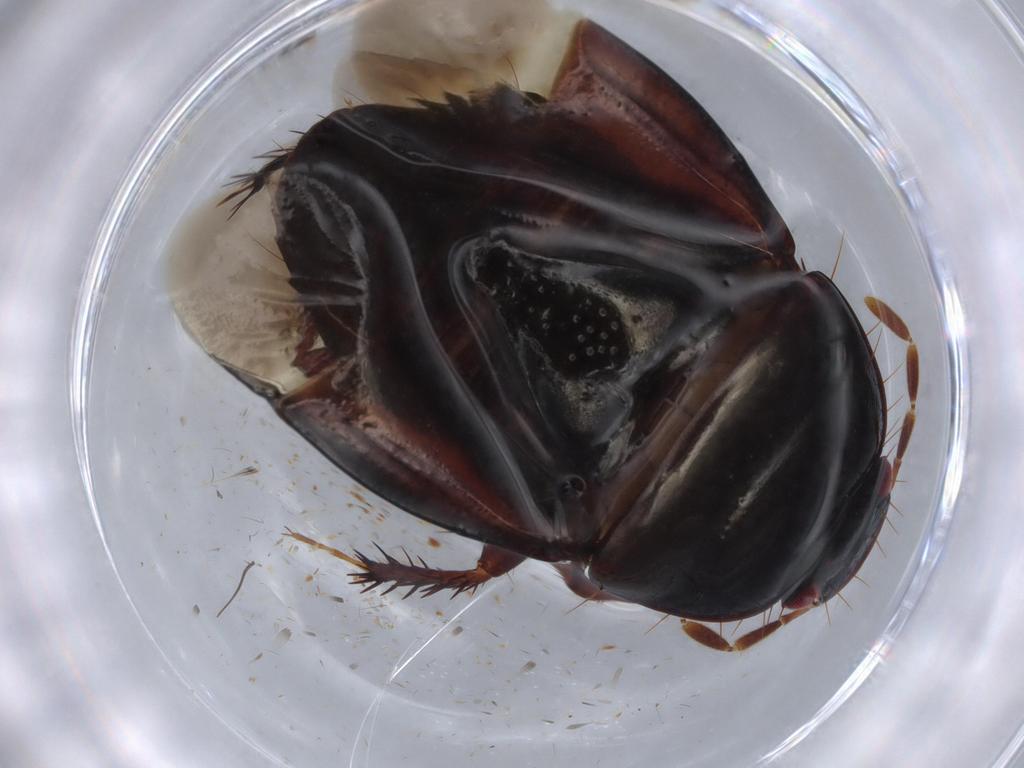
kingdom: Animalia
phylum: Arthropoda
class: Insecta
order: Hemiptera
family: Cydnidae
